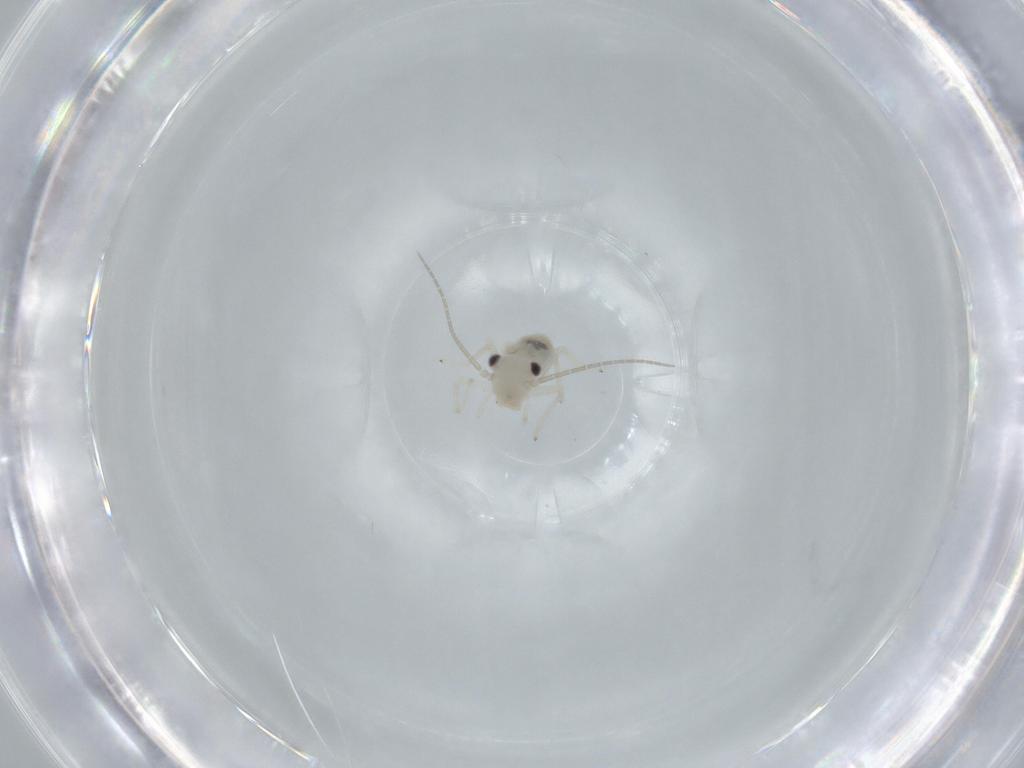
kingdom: Animalia
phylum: Arthropoda
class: Insecta
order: Psocodea
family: Caeciliusidae
